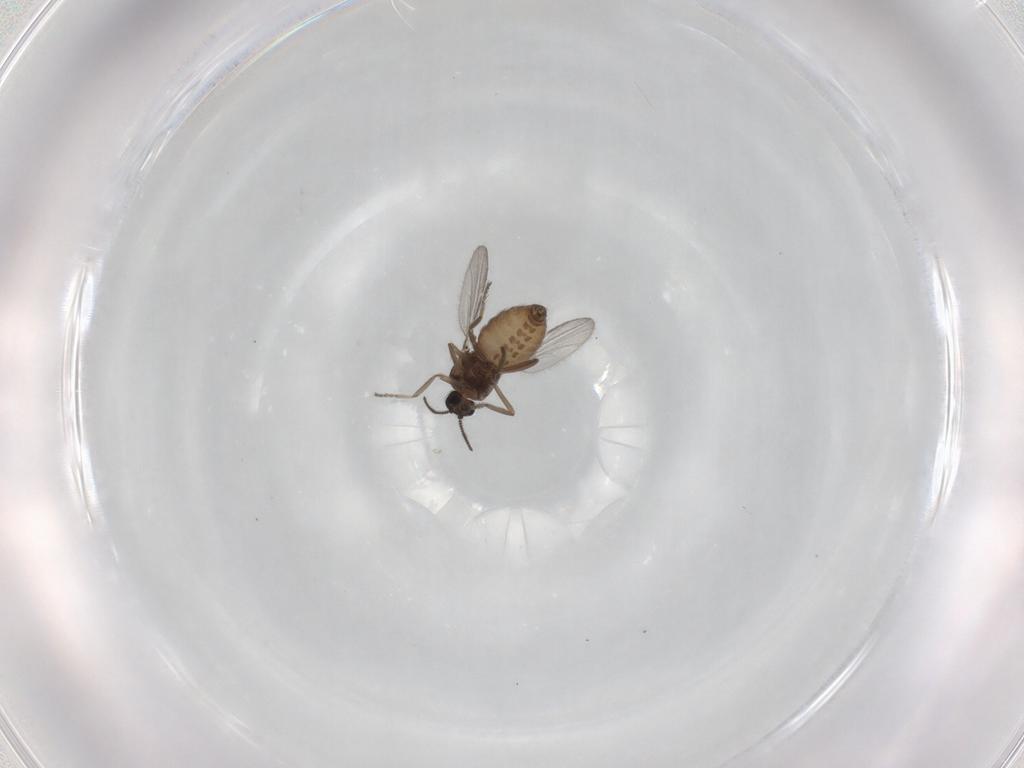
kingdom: Animalia
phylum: Arthropoda
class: Insecta
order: Diptera
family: Ceratopogonidae
